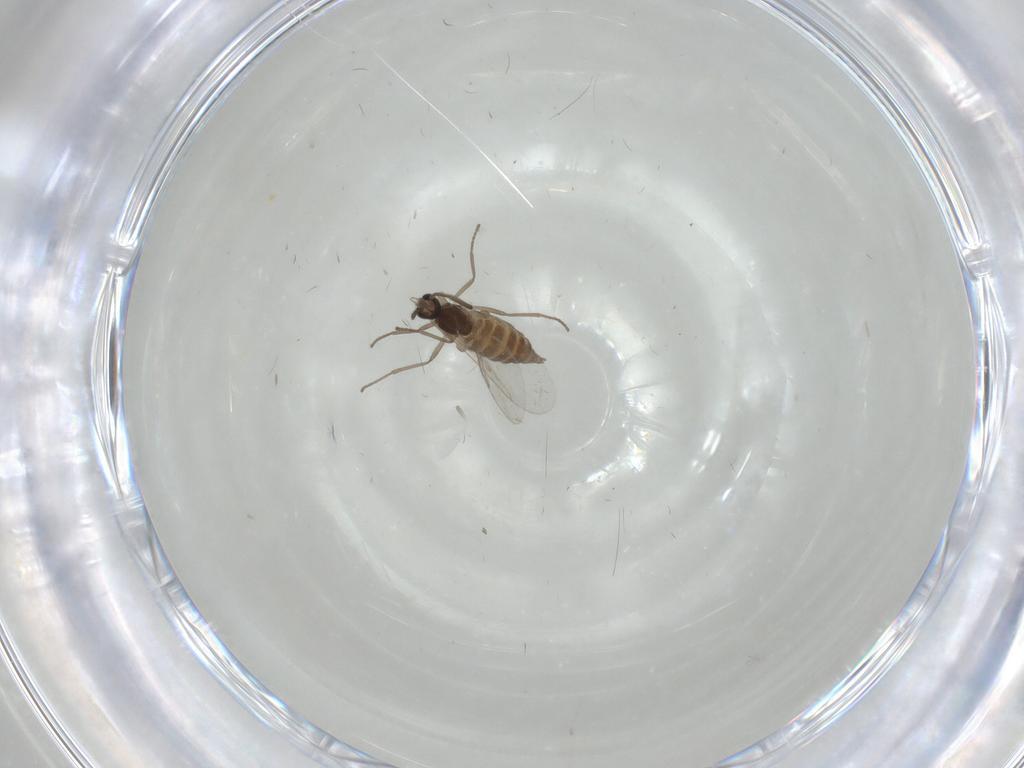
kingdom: Animalia
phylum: Arthropoda
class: Insecta
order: Diptera
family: Cecidomyiidae
